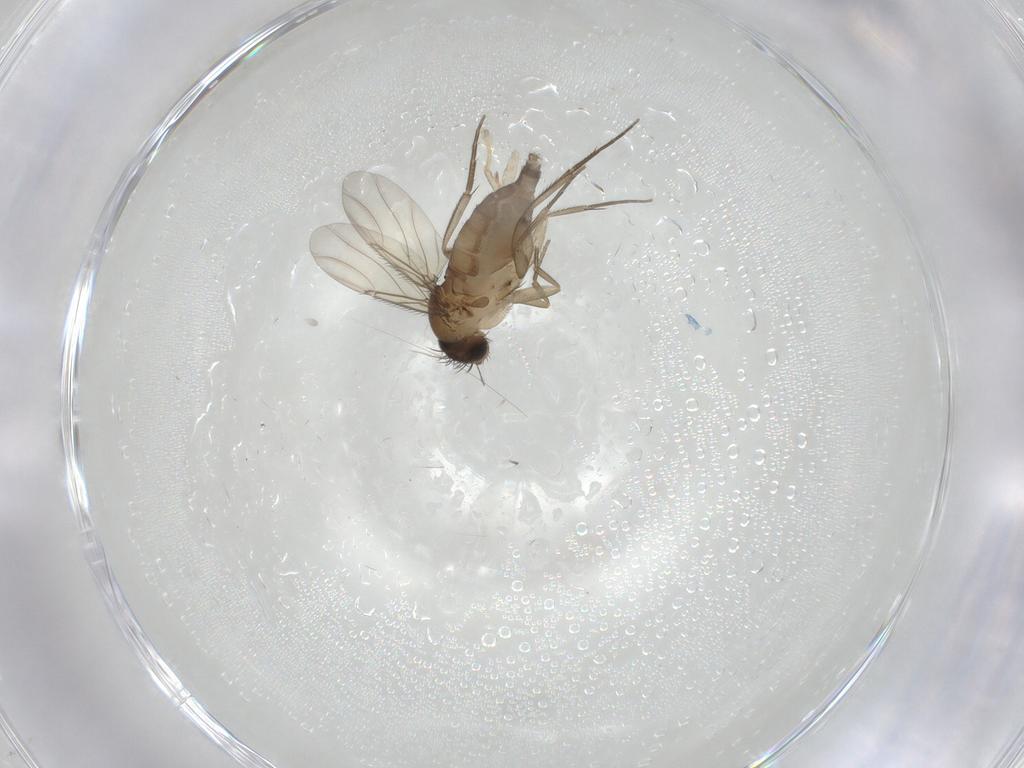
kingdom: Animalia
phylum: Arthropoda
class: Insecta
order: Diptera
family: Phoridae
